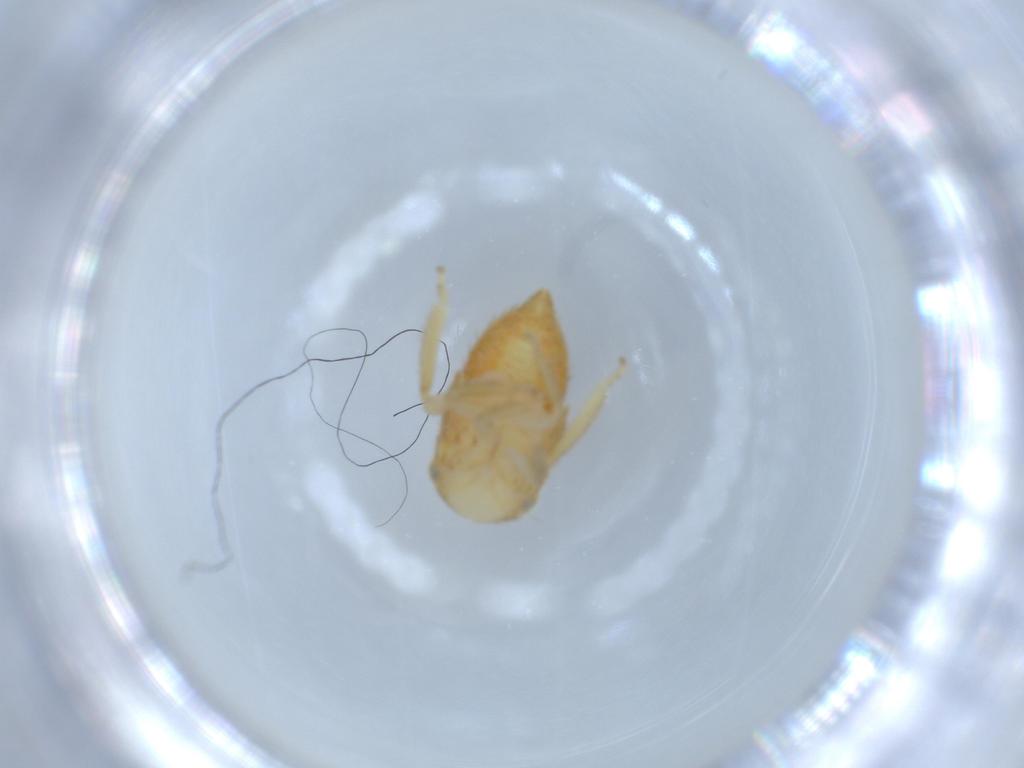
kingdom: Animalia
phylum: Arthropoda
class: Insecta
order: Hemiptera
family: Cicadellidae
